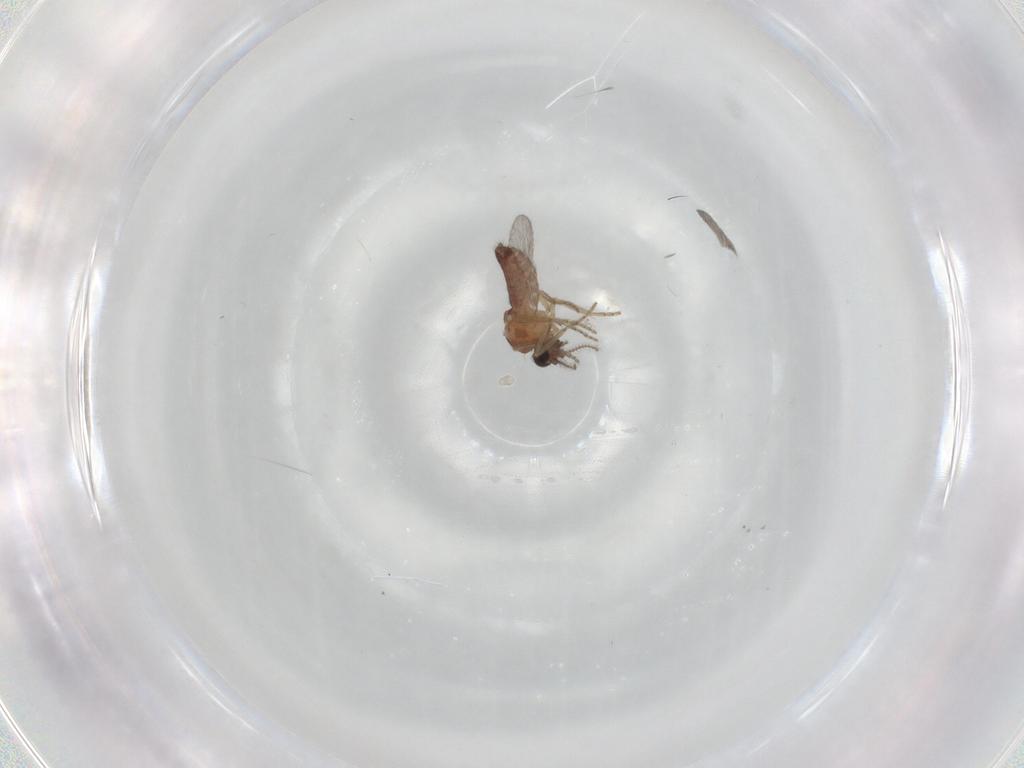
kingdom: Animalia
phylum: Arthropoda
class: Insecta
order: Diptera
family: Ceratopogonidae
